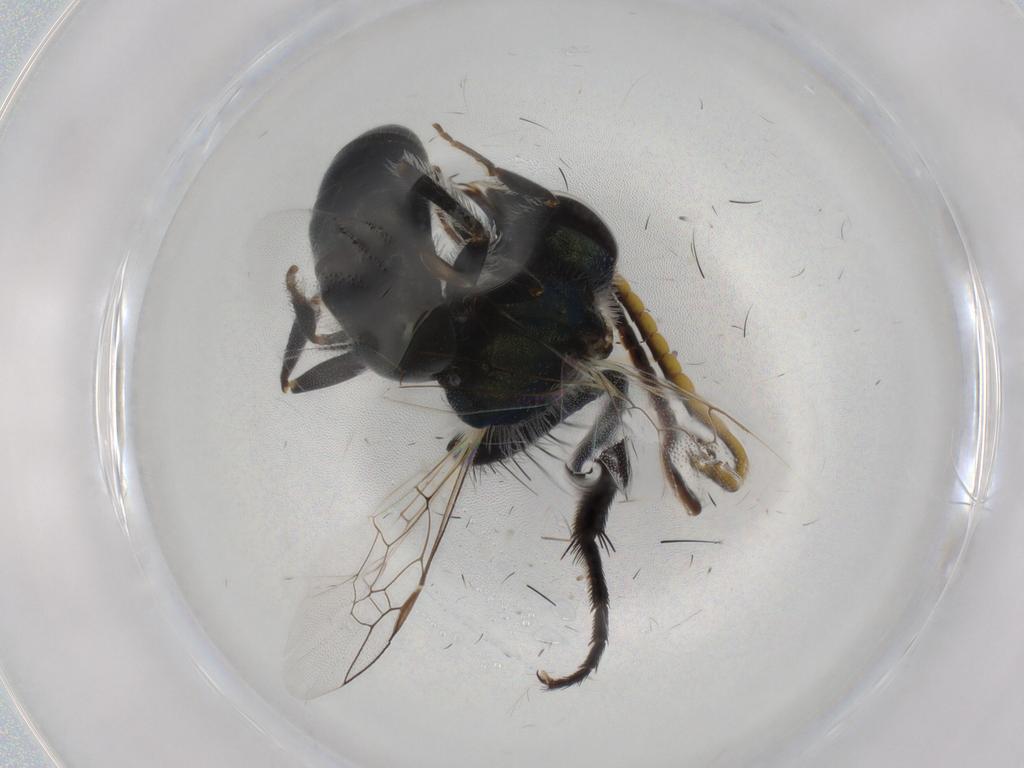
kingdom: Animalia
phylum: Arthropoda
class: Insecta
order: Hymenoptera
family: Halictidae
